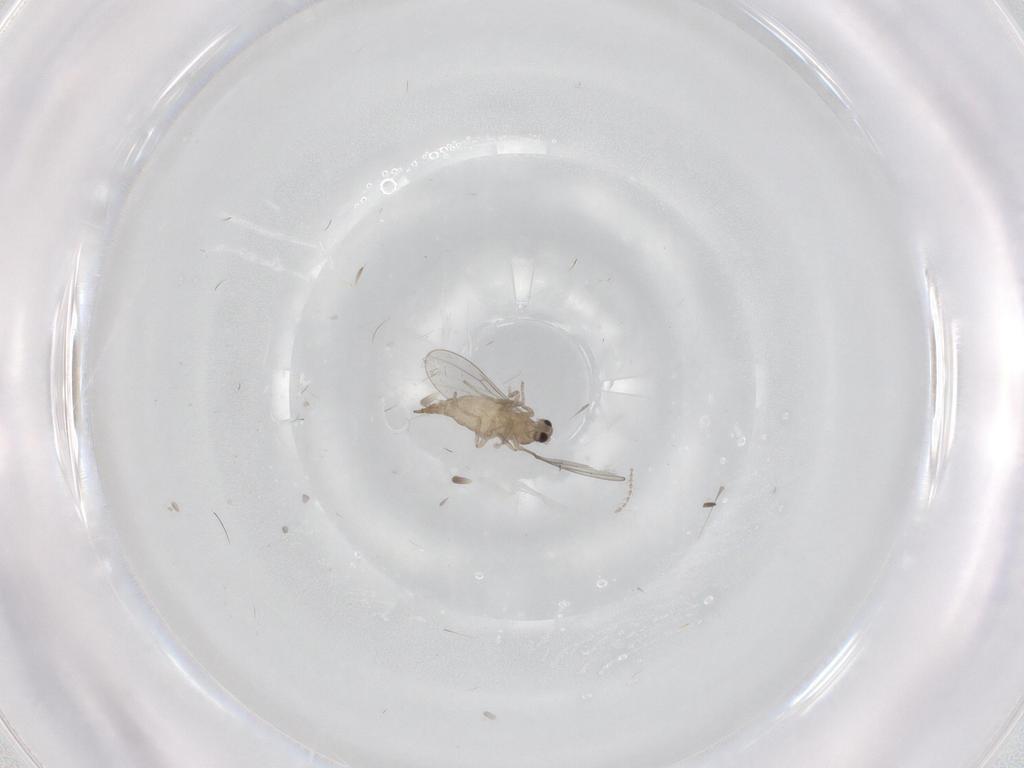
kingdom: Animalia
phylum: Arthropoda
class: Insecta
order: Diptera
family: Cecidomyiidae
